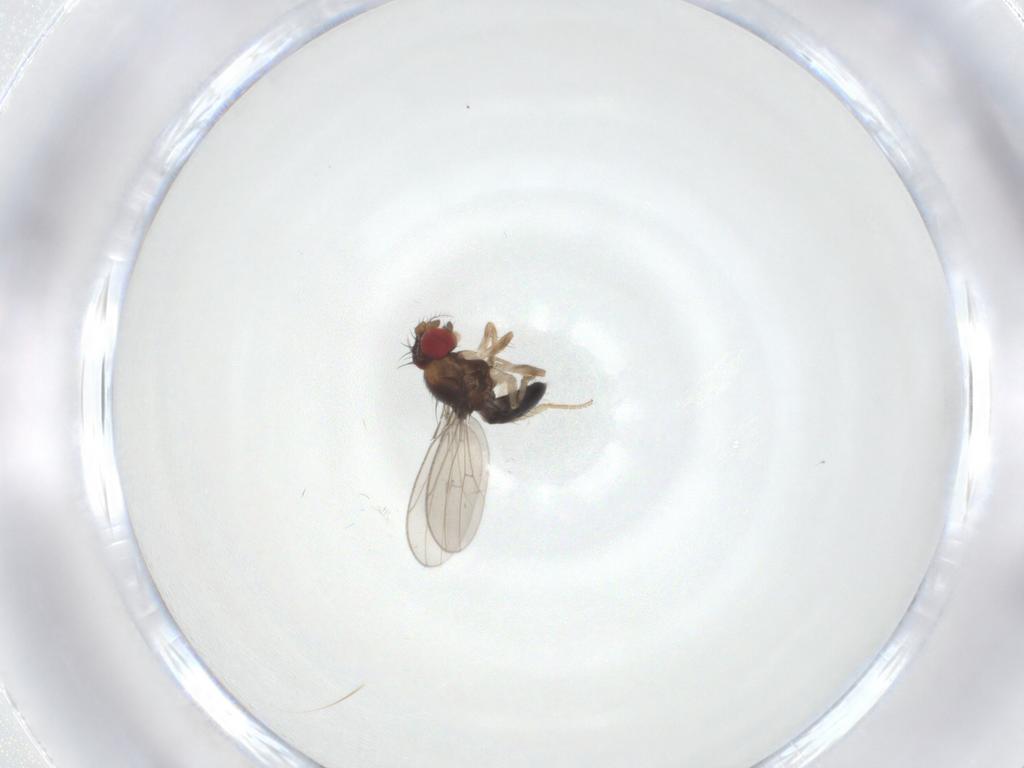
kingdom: Animalia
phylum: Arthropoda
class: Insecta
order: Diptera
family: Drosophilidae
